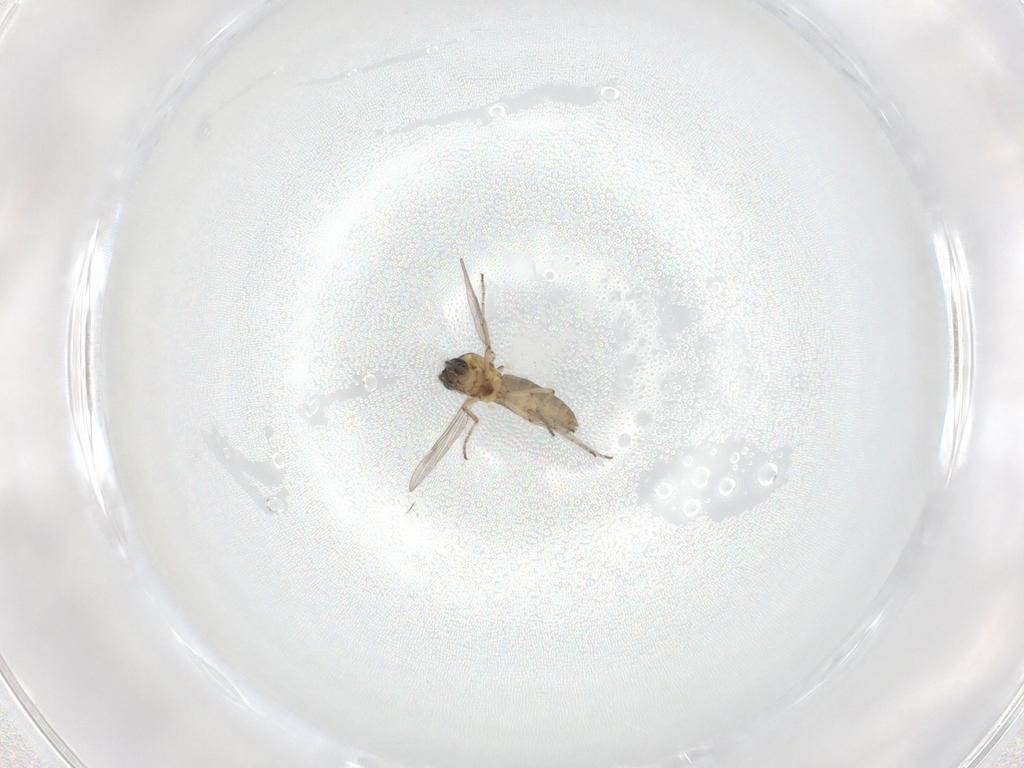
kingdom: Animalia
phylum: Arthropoda
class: Insecta
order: Diptera
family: Ceratopogonidae
